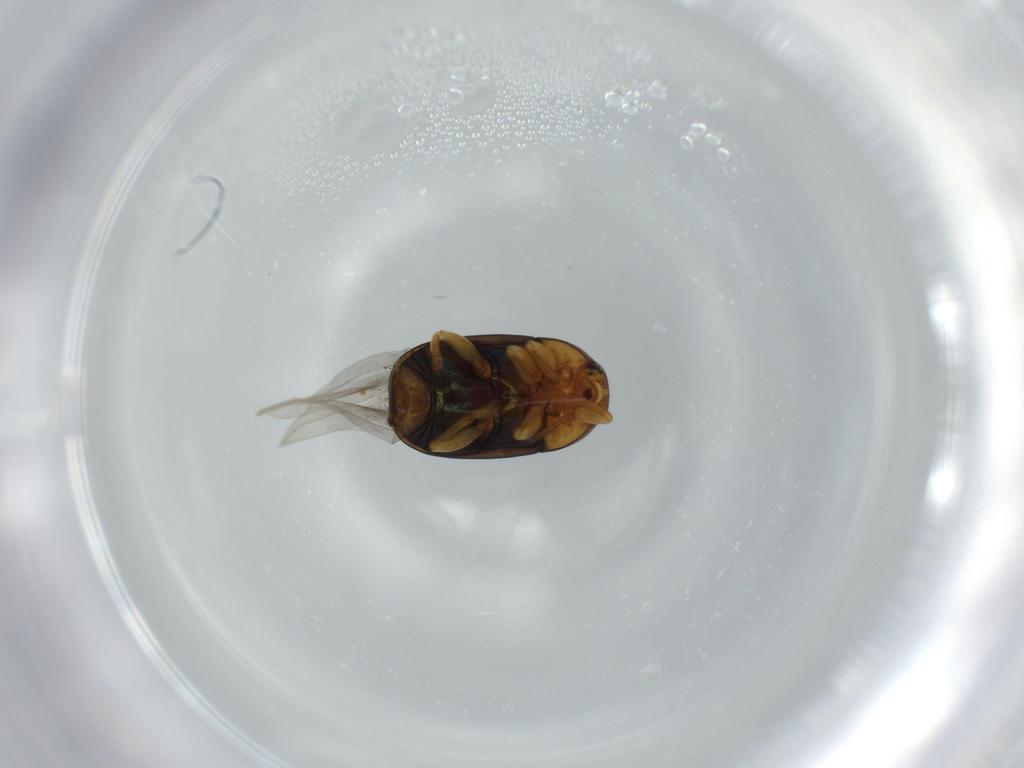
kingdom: Animalia
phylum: Arthropoda
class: Insecta
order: Coleoptera
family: Chrysomelidae
